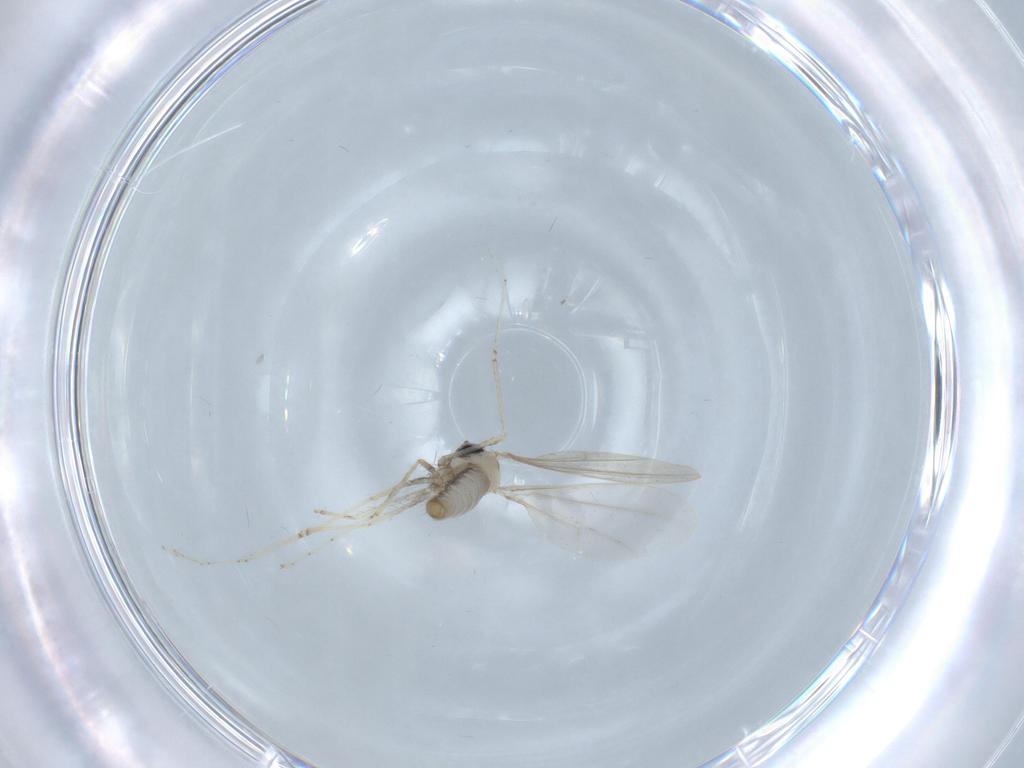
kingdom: Animalia
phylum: Arthropoda
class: Insecta
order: Diptera
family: Cecidomyiidae
